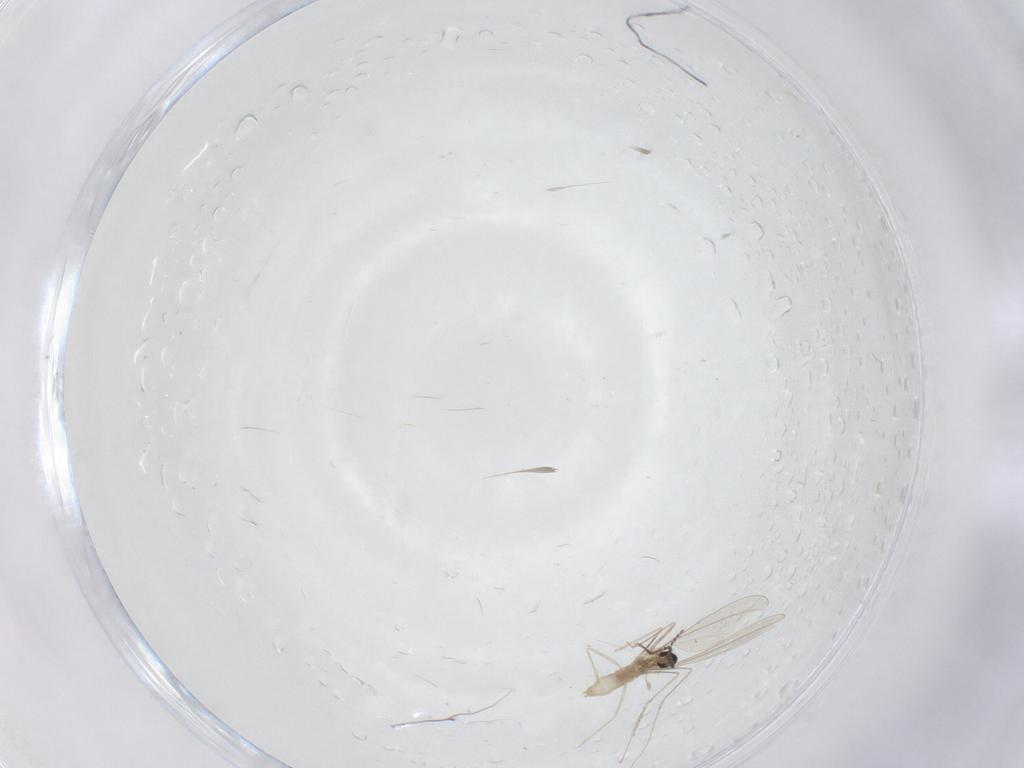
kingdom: Animalia
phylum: Arthropoda
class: Insecta
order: Diptera
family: Cecidomyiidae
